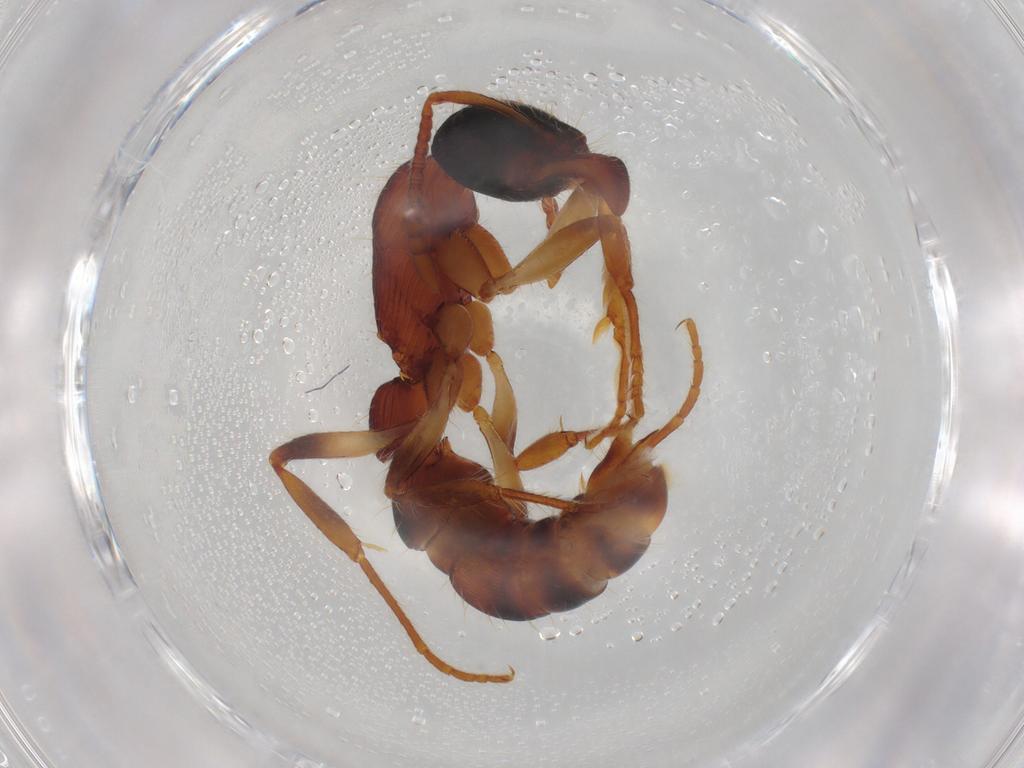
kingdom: Animalia
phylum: Arthropoda
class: Insecta
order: Hymenoptera
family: Formicidae
